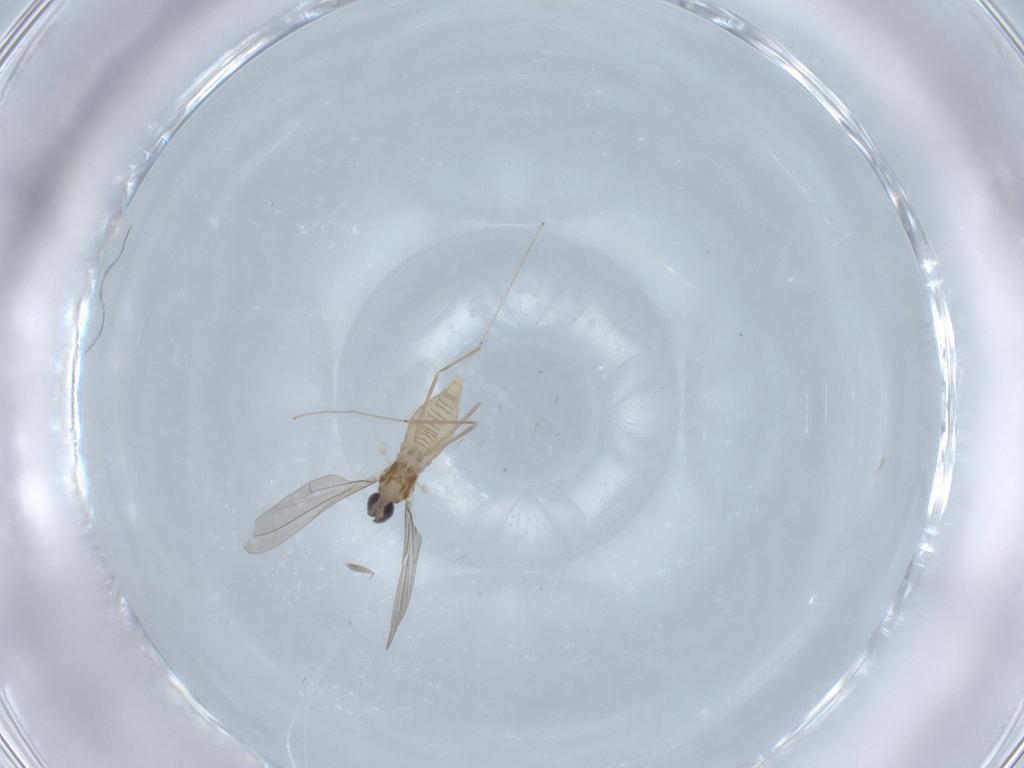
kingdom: Animalia
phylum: Arthropoda
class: Insecta
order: Diptera
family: Cecidomyiidae
